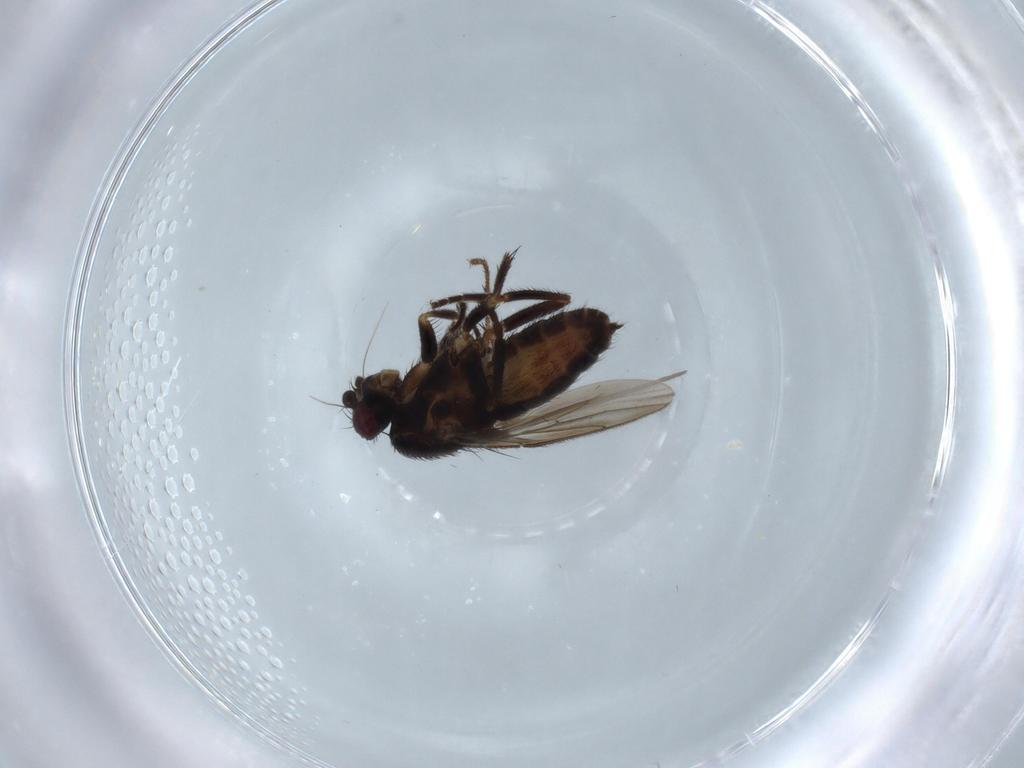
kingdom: Animalia
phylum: Arthropoda
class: Insecta
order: Diptera
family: Sphaeroceridae
